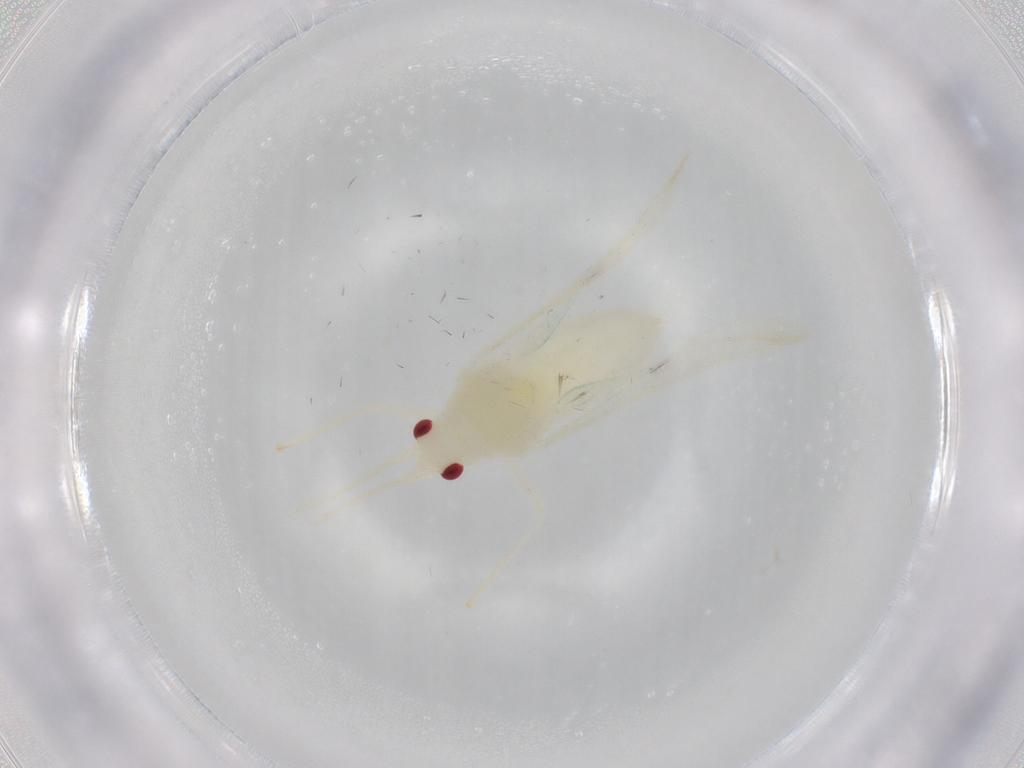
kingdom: Animalia
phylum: Arthropoda
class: Insecta
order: Hemiptera
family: Miridae
